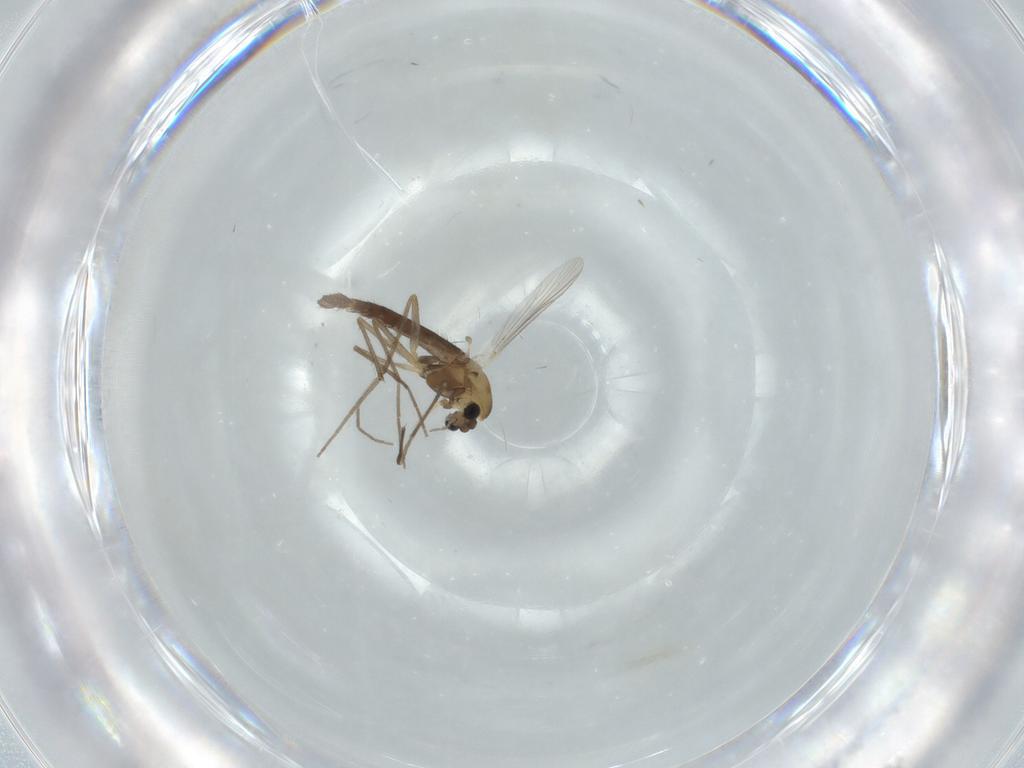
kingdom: Animalia
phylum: Arthropoda
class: Insecta
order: Diptera
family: Chironomidae
